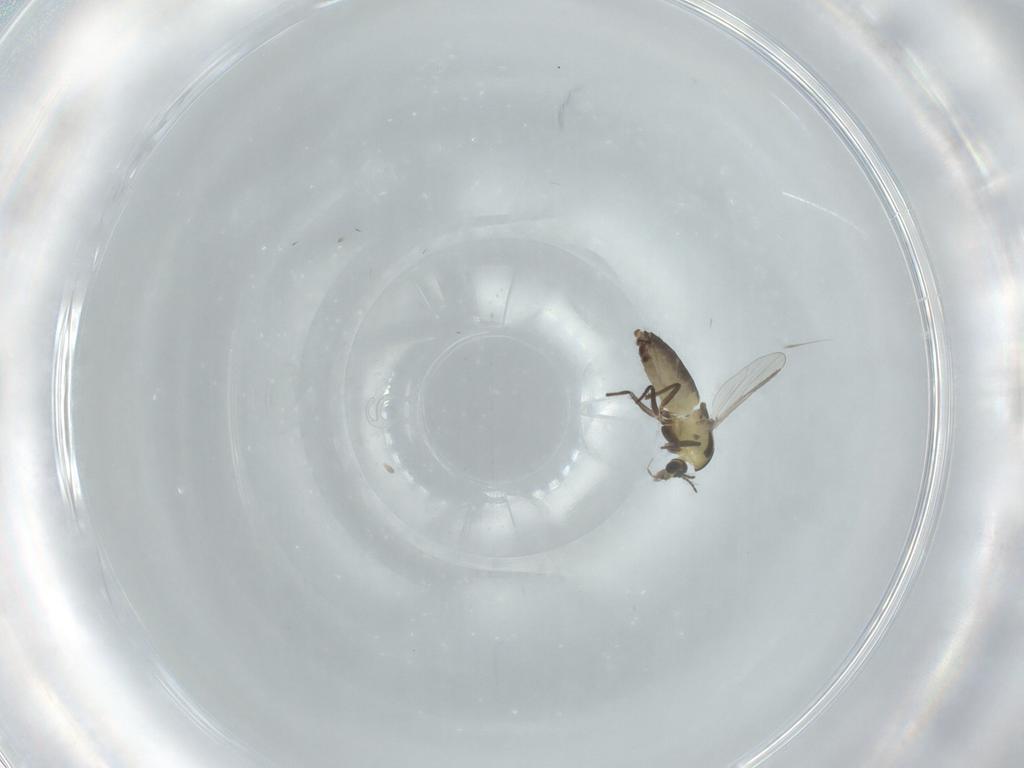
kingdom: Animalia
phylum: Arthropoda
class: Insecta
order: Diptera
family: Chironomidae
